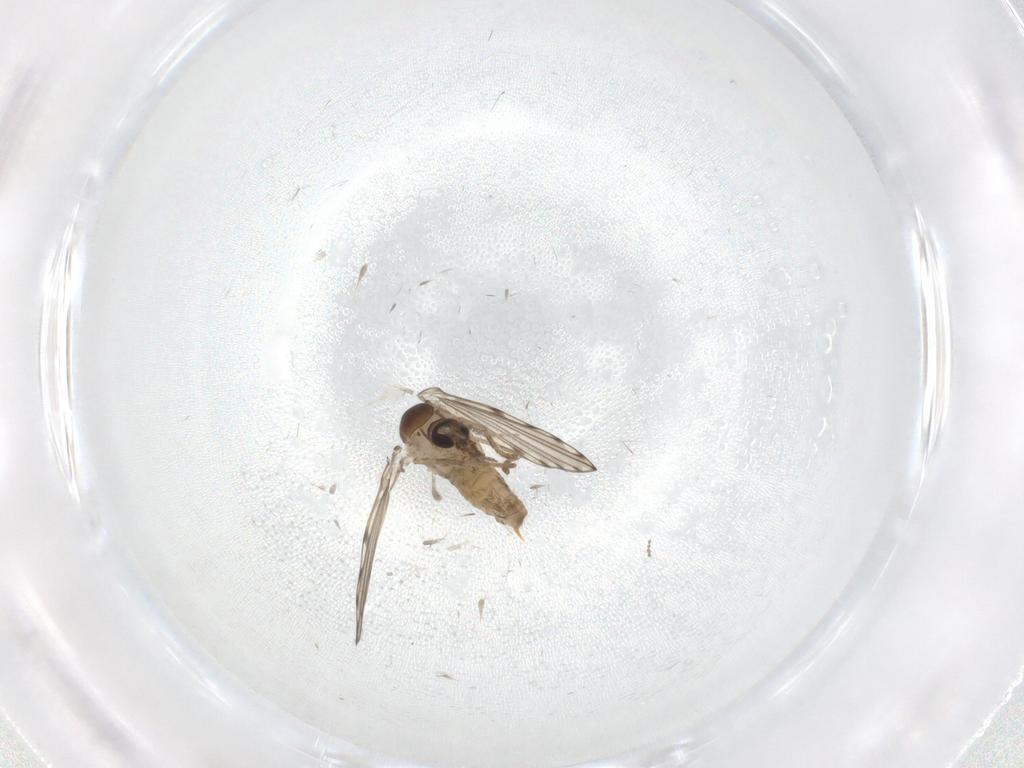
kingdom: Animalia
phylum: Arthropoda
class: Insecta
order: Diptera
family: Psychodidae
